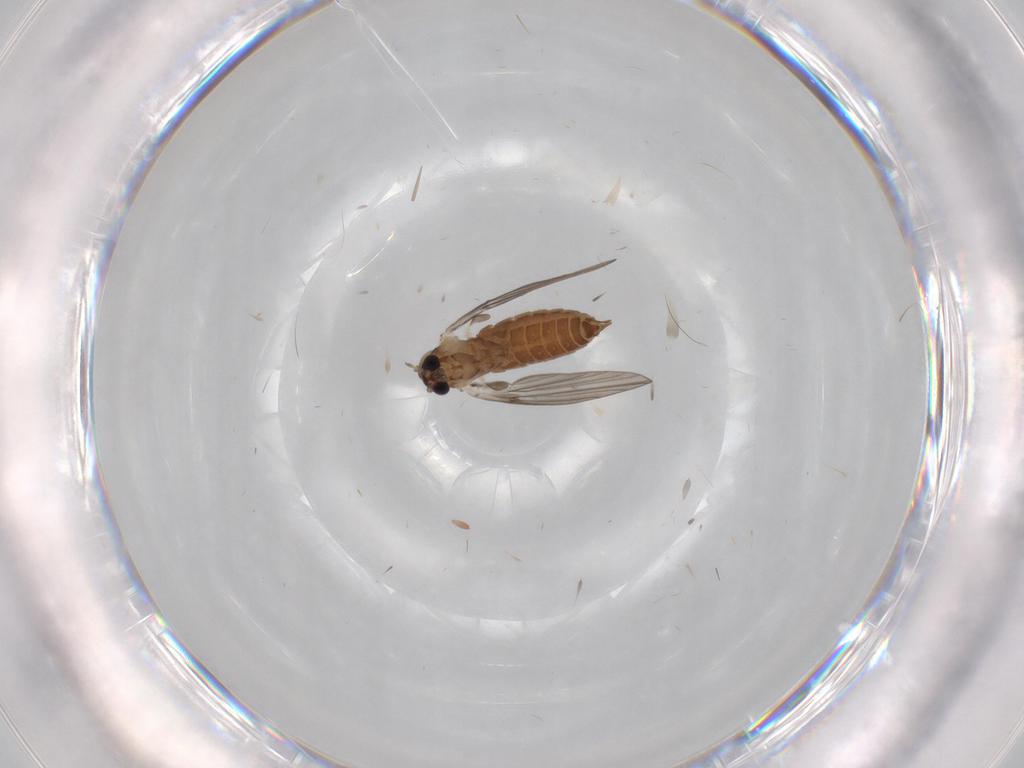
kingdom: Animalia
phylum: Arthropoda
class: Insecta
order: Diptera
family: Chironomidae
